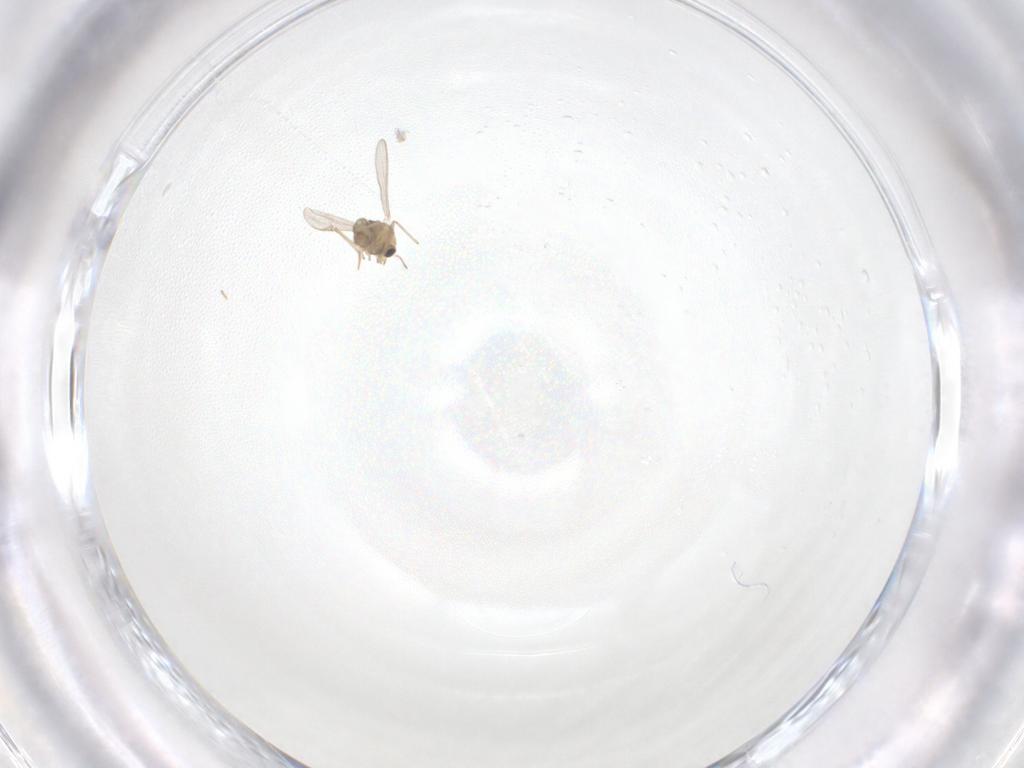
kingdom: Animalia
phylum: Arthropoda
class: Insecta
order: Diptera
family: Chironomidae
